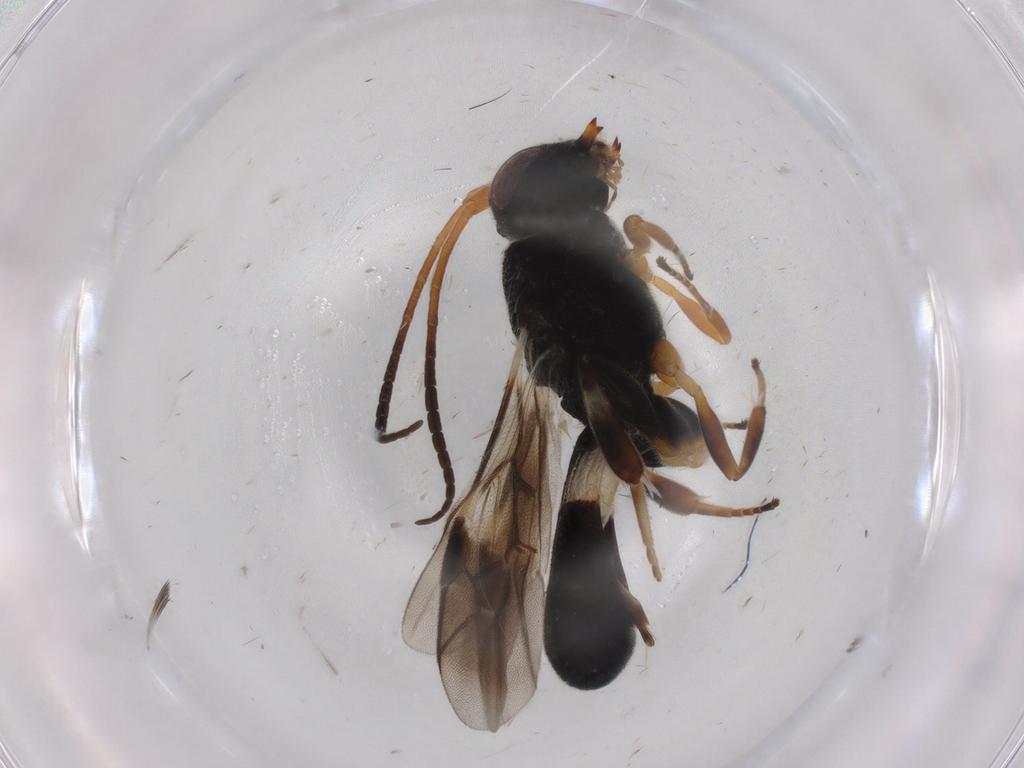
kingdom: Animalia
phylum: Arthropoda
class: Insecta
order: Hymenoptera
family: Braconidae
